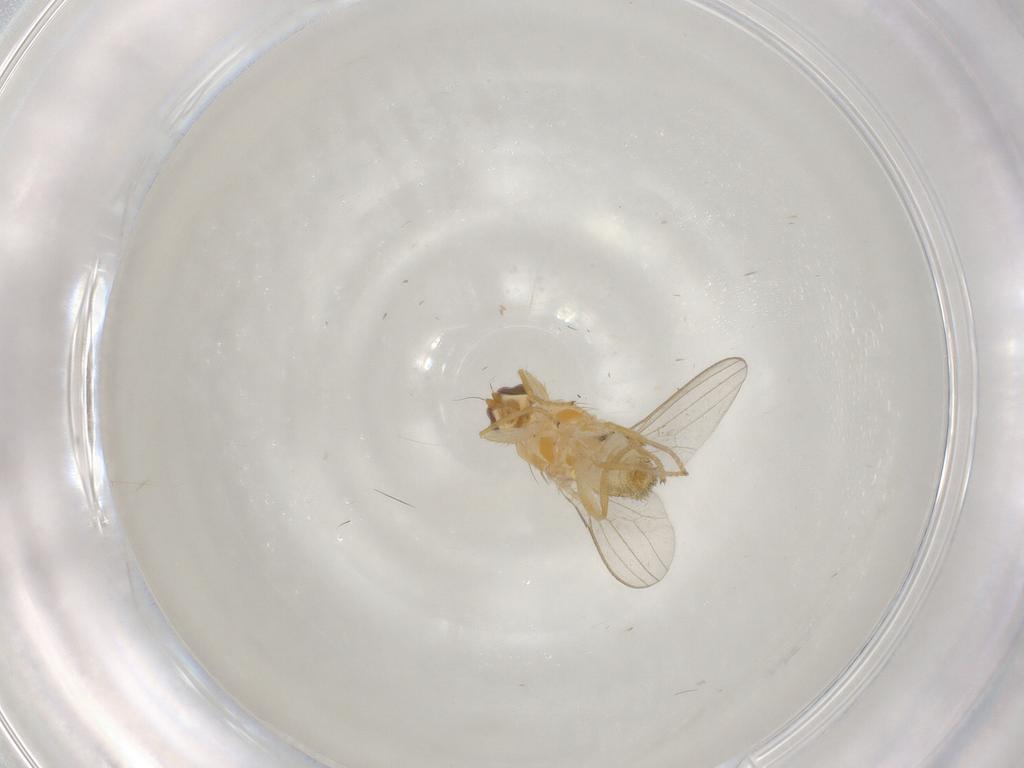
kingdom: Animalia
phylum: Arthropoda
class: Insecta
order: Diptera
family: Chyromyidae
